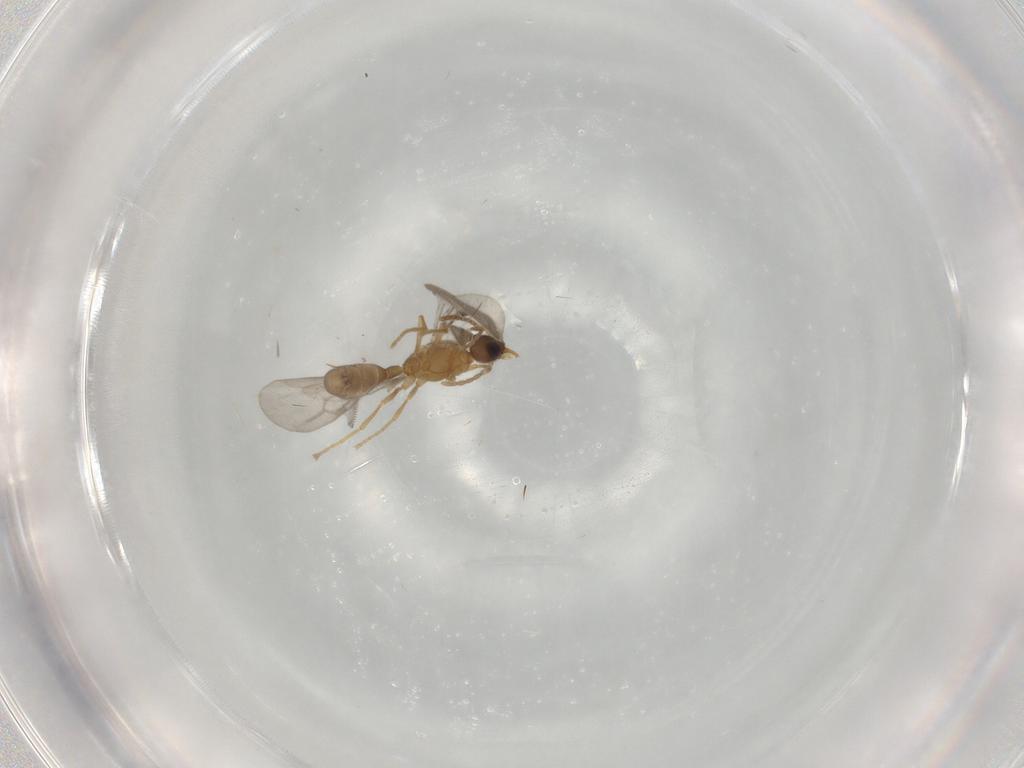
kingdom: Animalia
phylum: Arthropoda
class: Insecta
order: Hymenoptera
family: Formicidae
